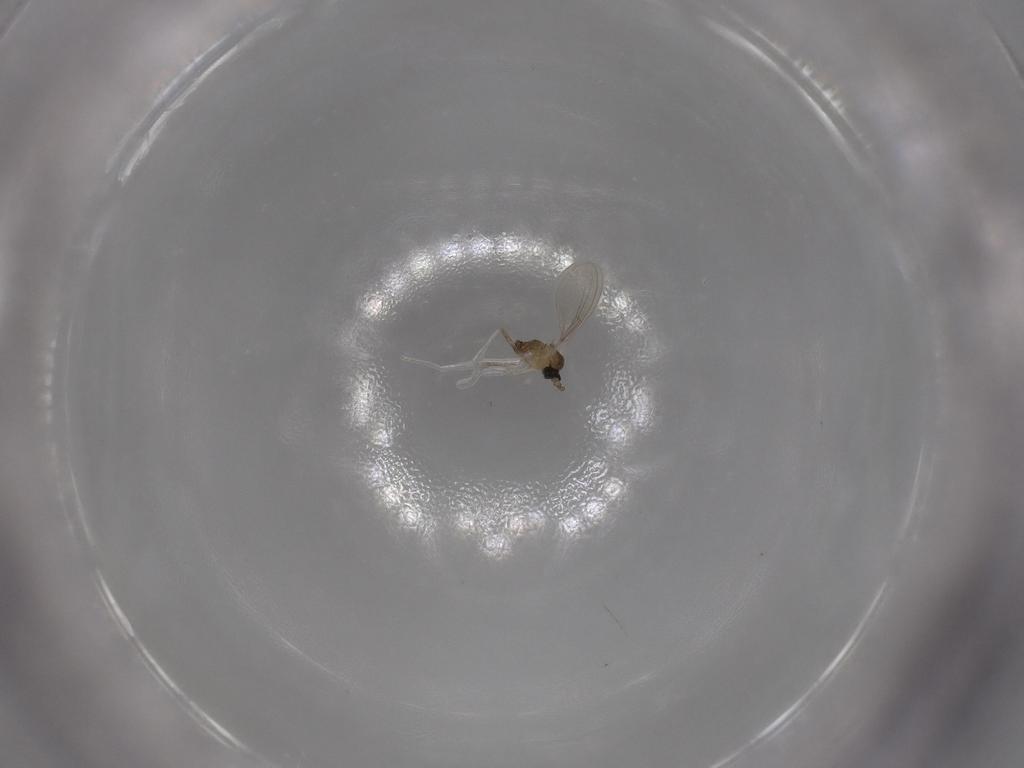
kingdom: Animalia
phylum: Arthropoda
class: Insecta
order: Diptera
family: Cecidomyiidae
